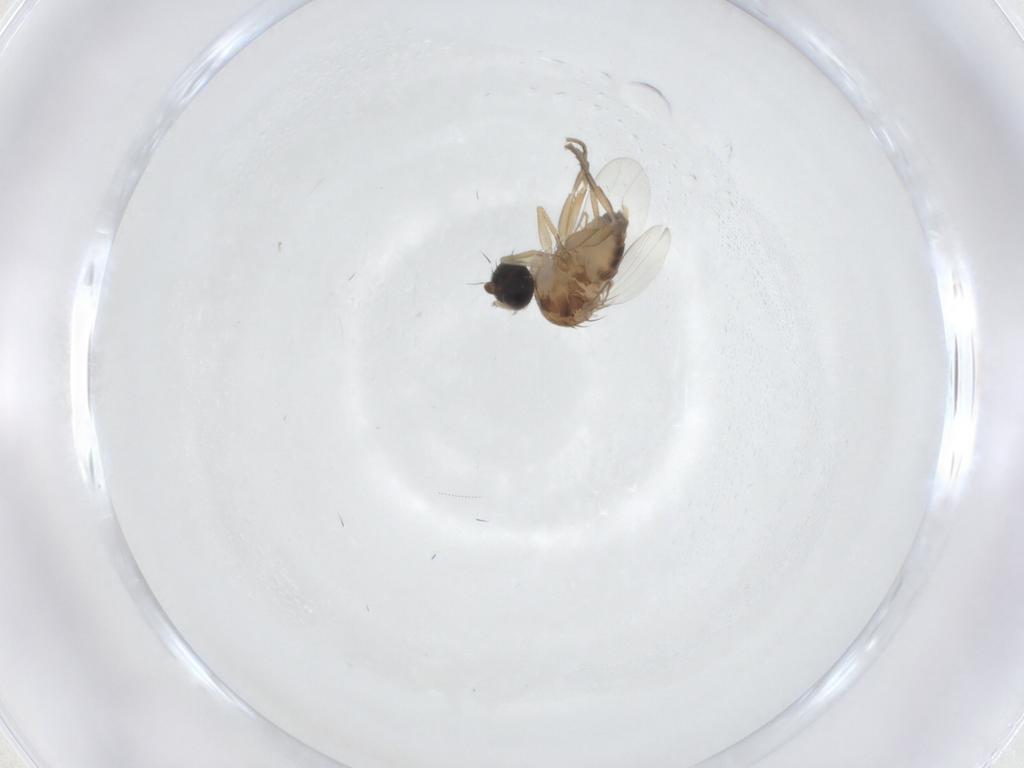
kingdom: Animalia
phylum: Arthropoda
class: Insecta
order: Diptera
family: Phoridae
